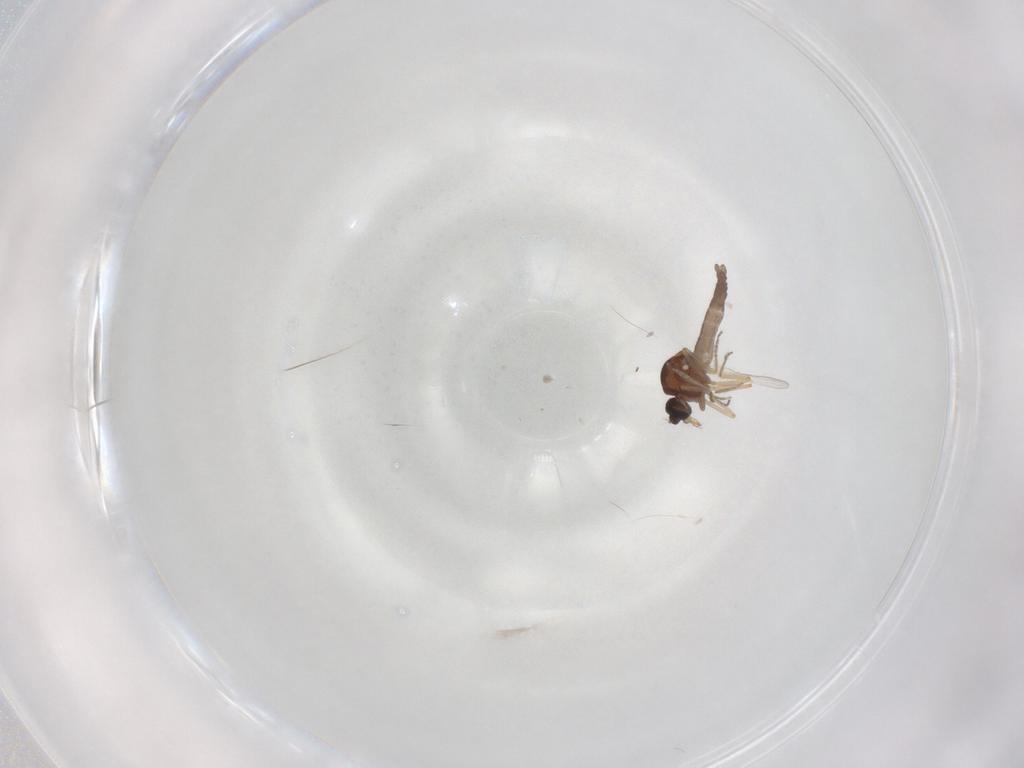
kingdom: Animalia
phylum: Arthropoda
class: Insecta
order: Diptera
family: Ceratopogonidae
